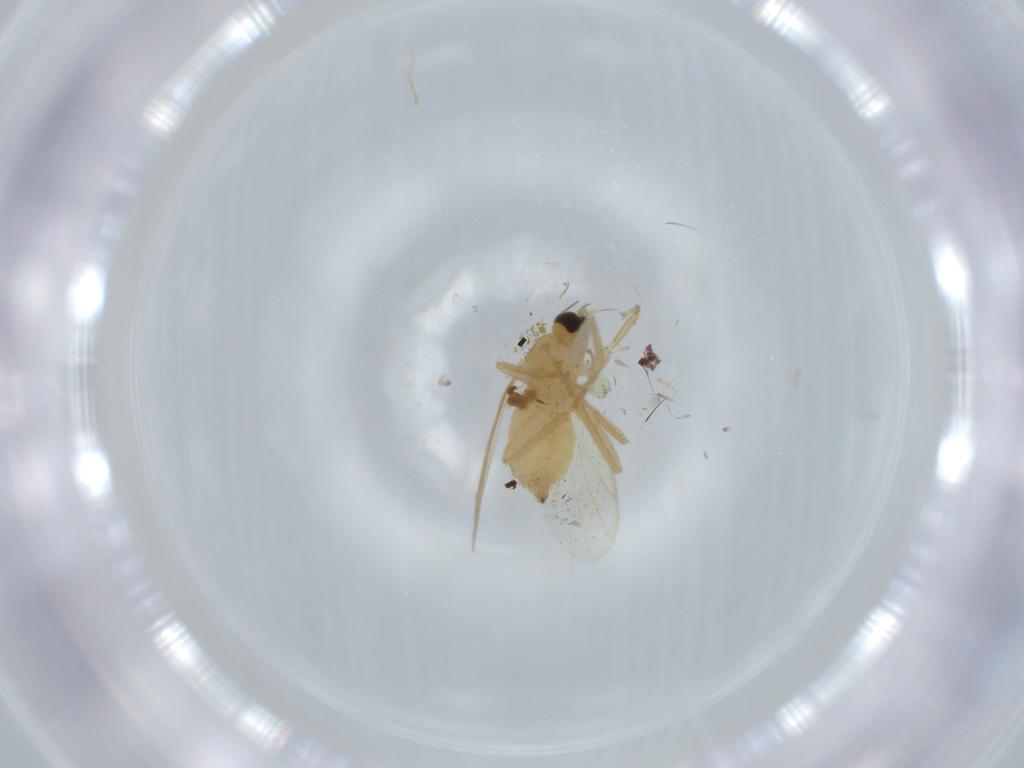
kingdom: Animalia
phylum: Arthropoda
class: Insecta
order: Diptera
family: Hybotidae
